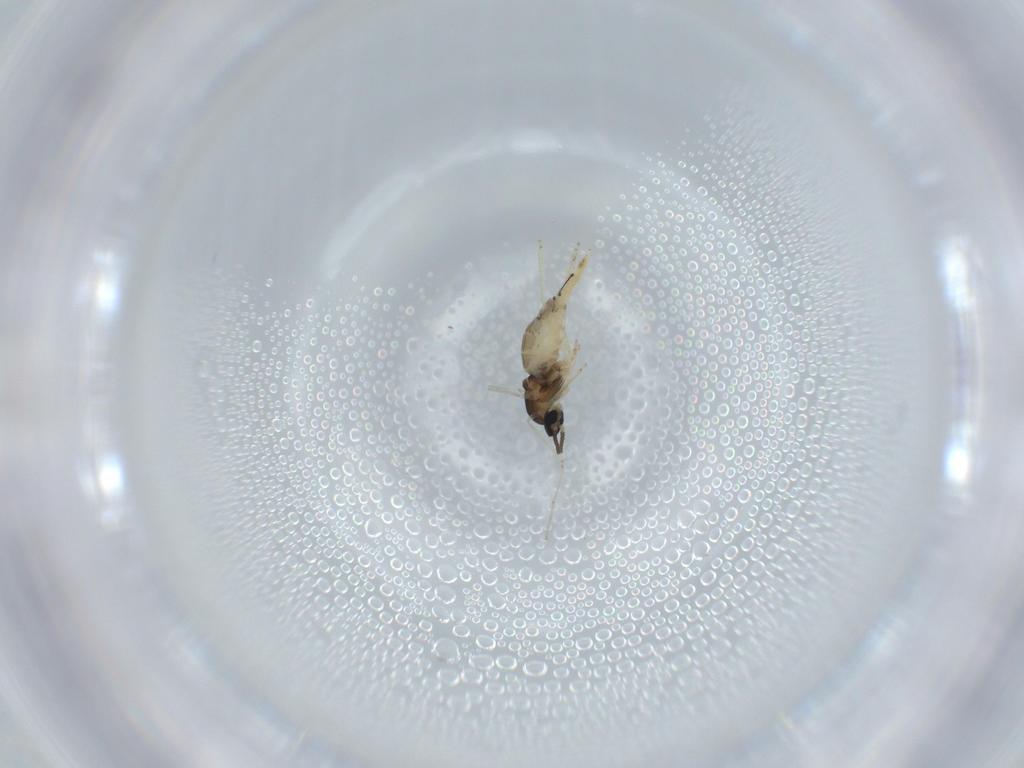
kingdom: Animalia
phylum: Arthropoda
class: Insecta
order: Diptera
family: Cecidomyiidae
